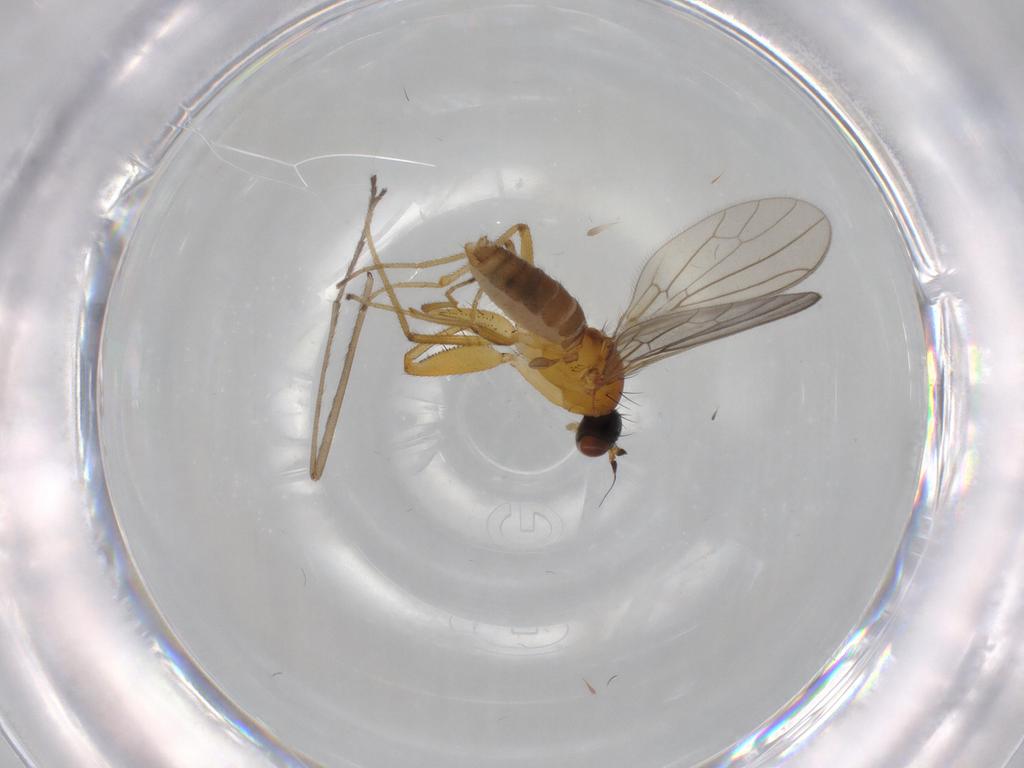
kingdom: Animalia
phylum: Arthropoda
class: Insecta
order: Diptera
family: Empididae
